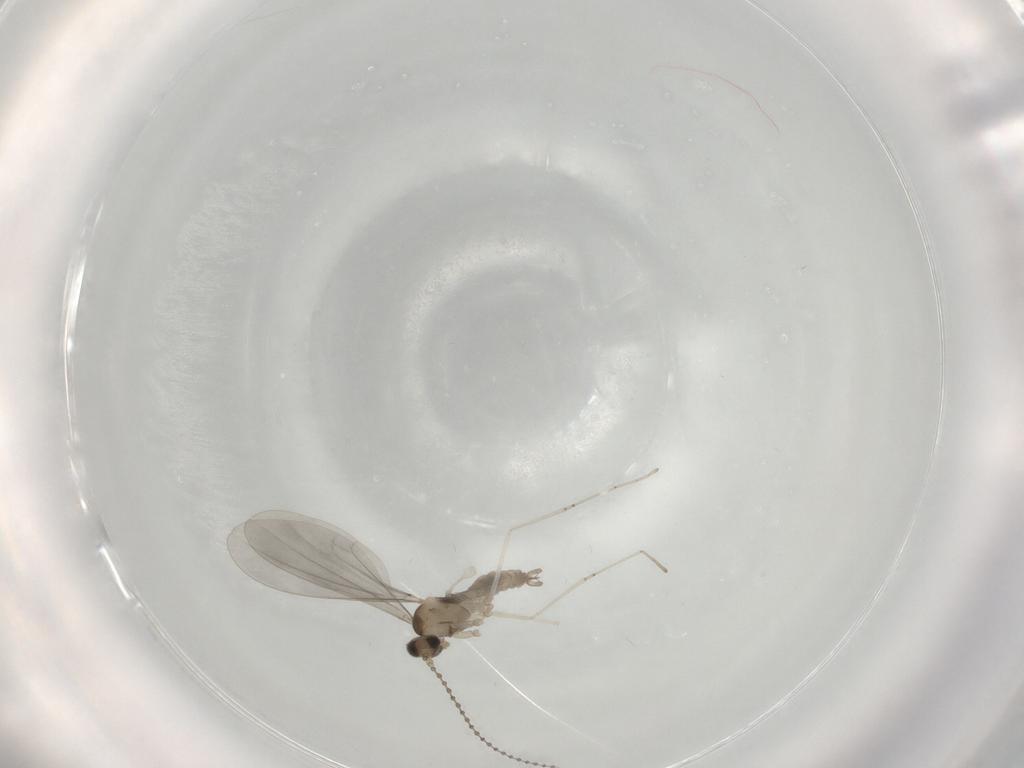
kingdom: Animalia
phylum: Arthropoda
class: Insecta
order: Diptera
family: Cecidomyiidae
